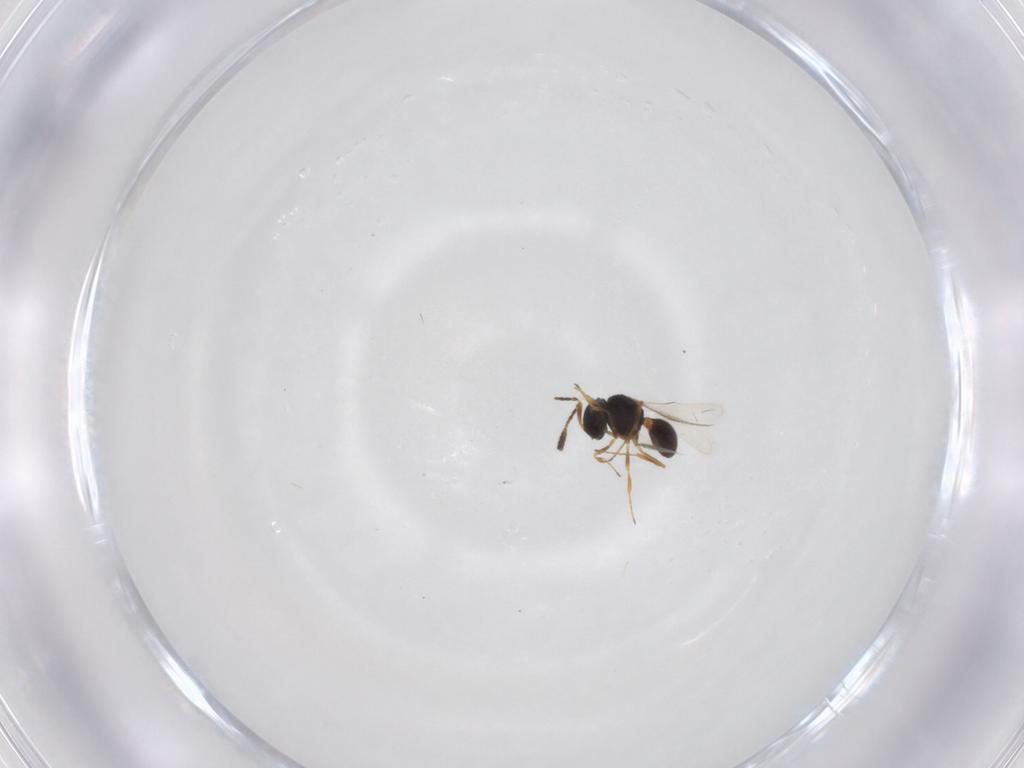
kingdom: Animalia
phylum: Arthropoda
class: Insecta
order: Hymenoptera
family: Scelionidae
